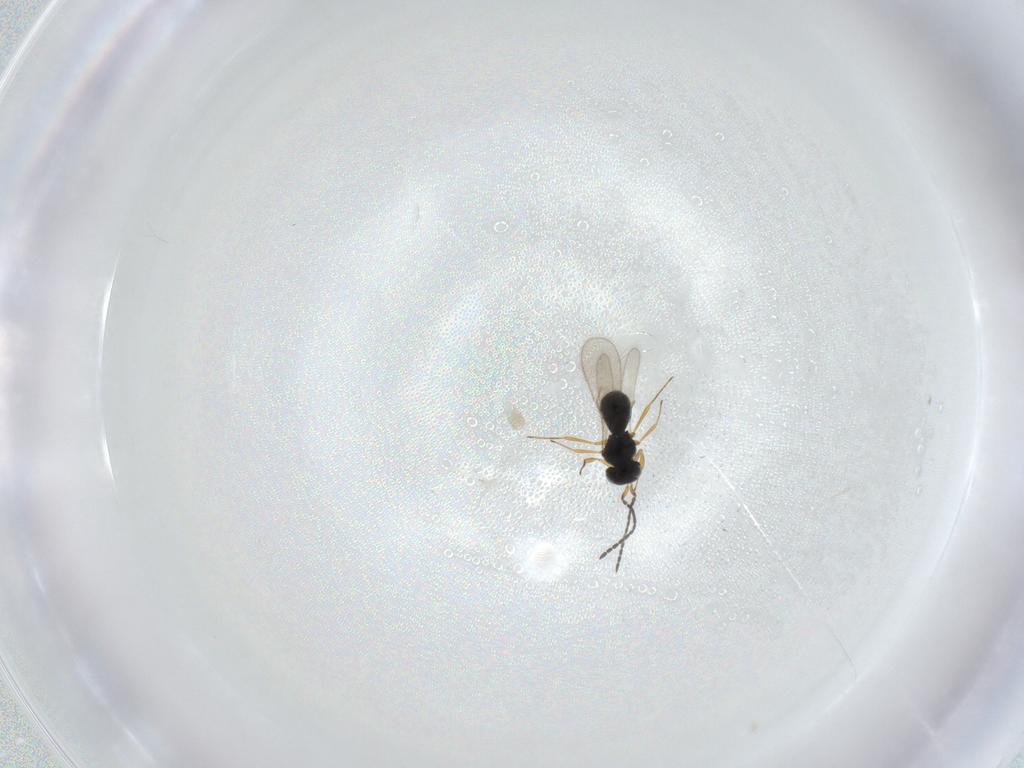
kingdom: Animalia
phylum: Arthropoda
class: Insecta
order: Hymenoptera
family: Scelionidae
